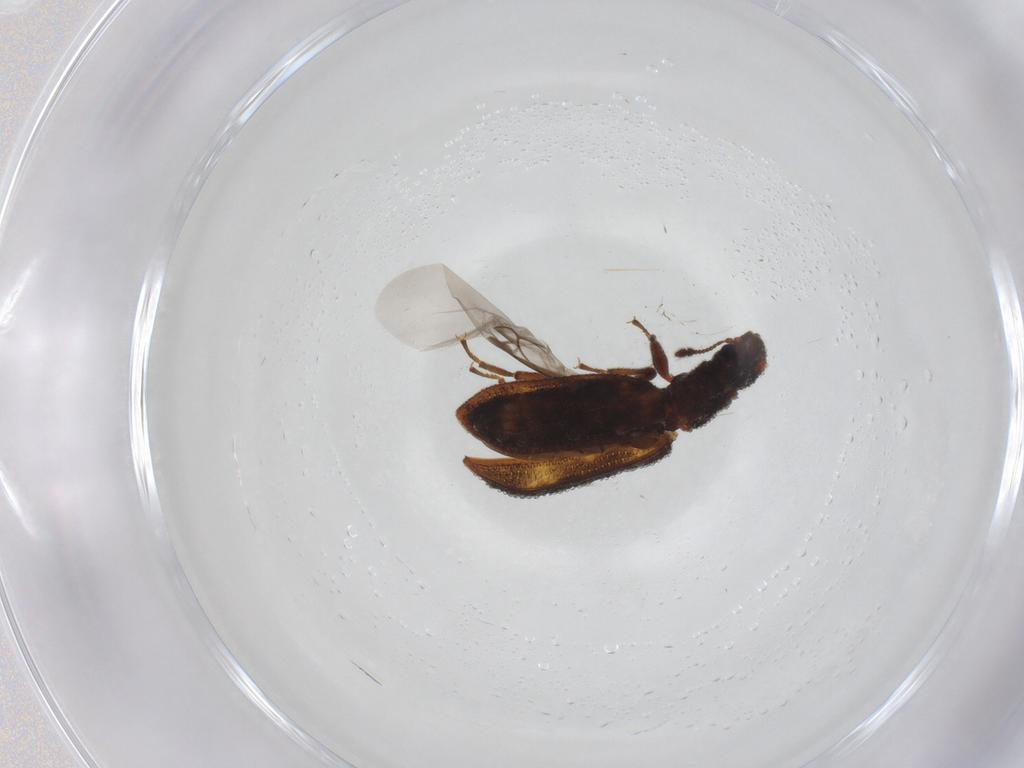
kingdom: Animalia
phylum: Arthropoda
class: Insecta
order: Coleoptera
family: Zopheridae
